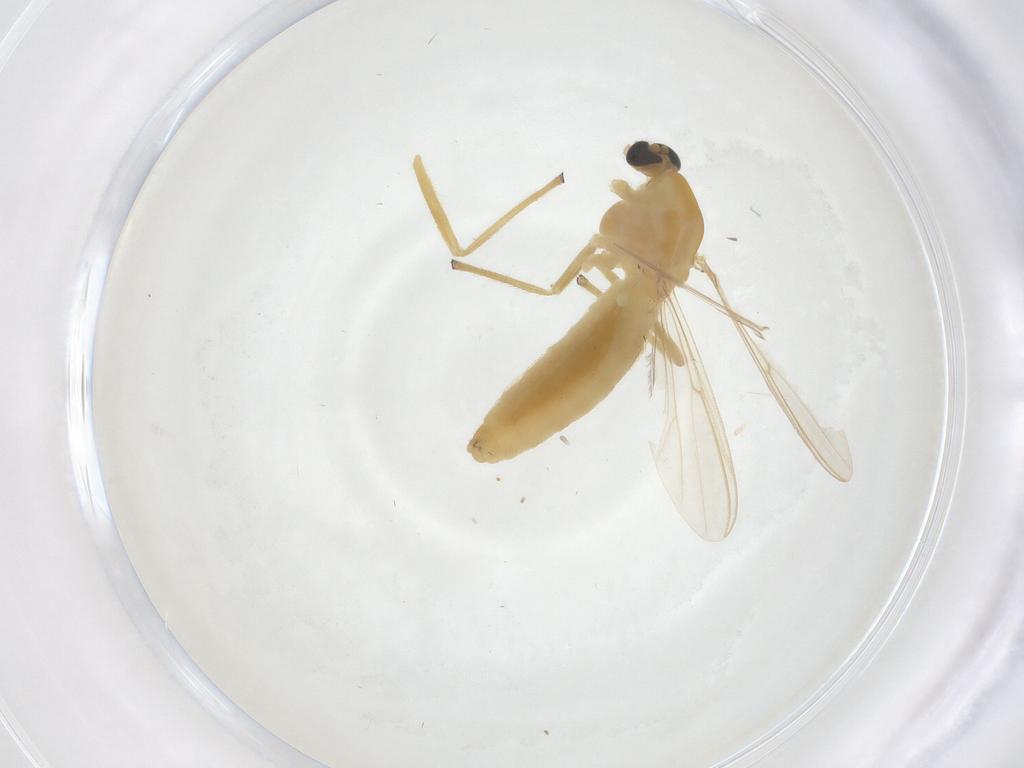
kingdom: Animalia
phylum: Arthropoda
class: Insecta
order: Diptera
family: Chironomidae
